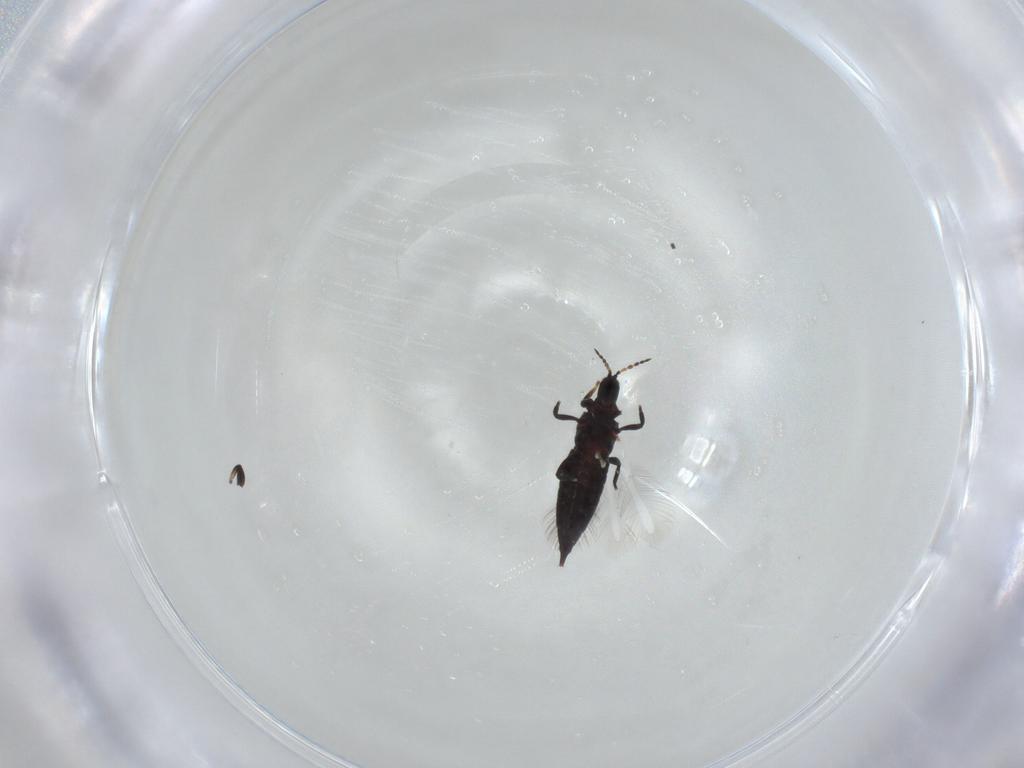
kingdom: Animalia
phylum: Arthropoda
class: Insecta
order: Thysanoptera
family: Phlaeothripidae
